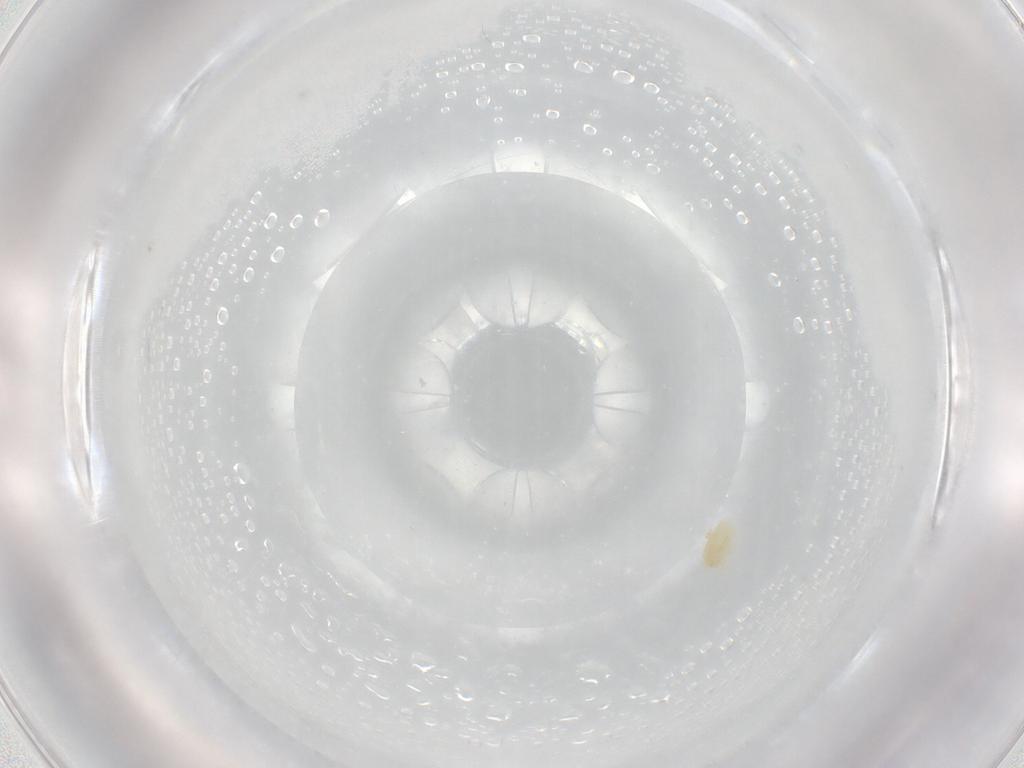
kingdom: Animalia
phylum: Arthropoda
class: Arachnida
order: Trombidiformes
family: Eupodidae
